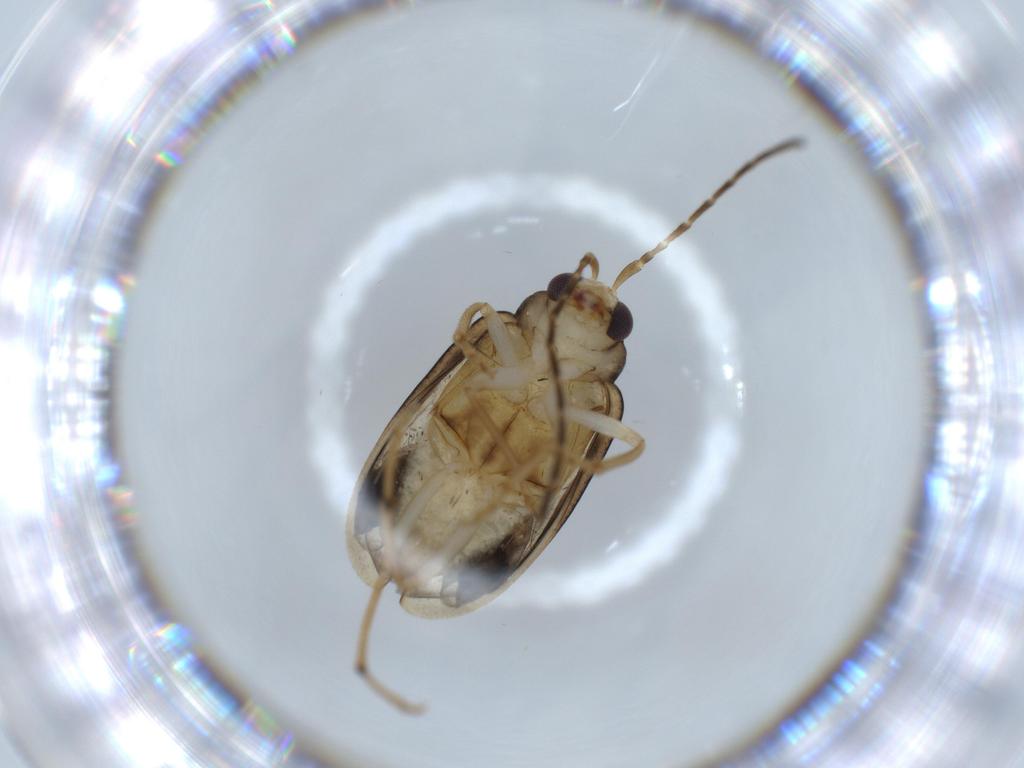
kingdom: Animalia
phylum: Arthropoda
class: Insecta
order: Coleoptera
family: Chrysomelidae
